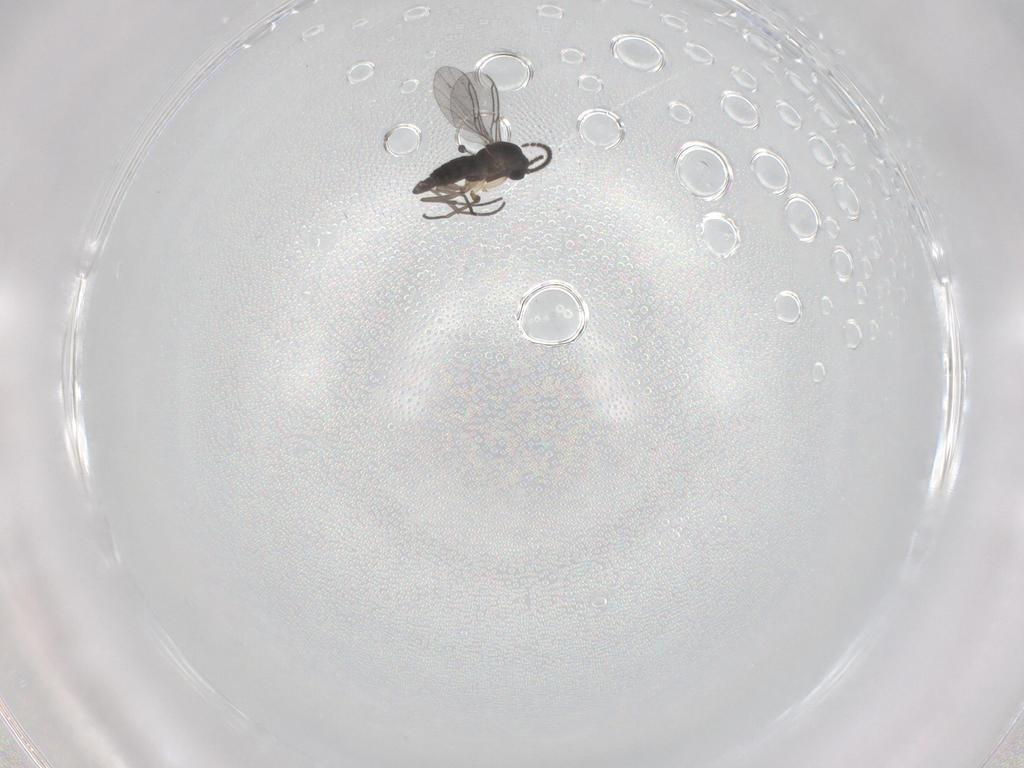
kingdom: Animalia
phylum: Arthropoda
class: Insecta
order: Diptera
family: Sciaridae
